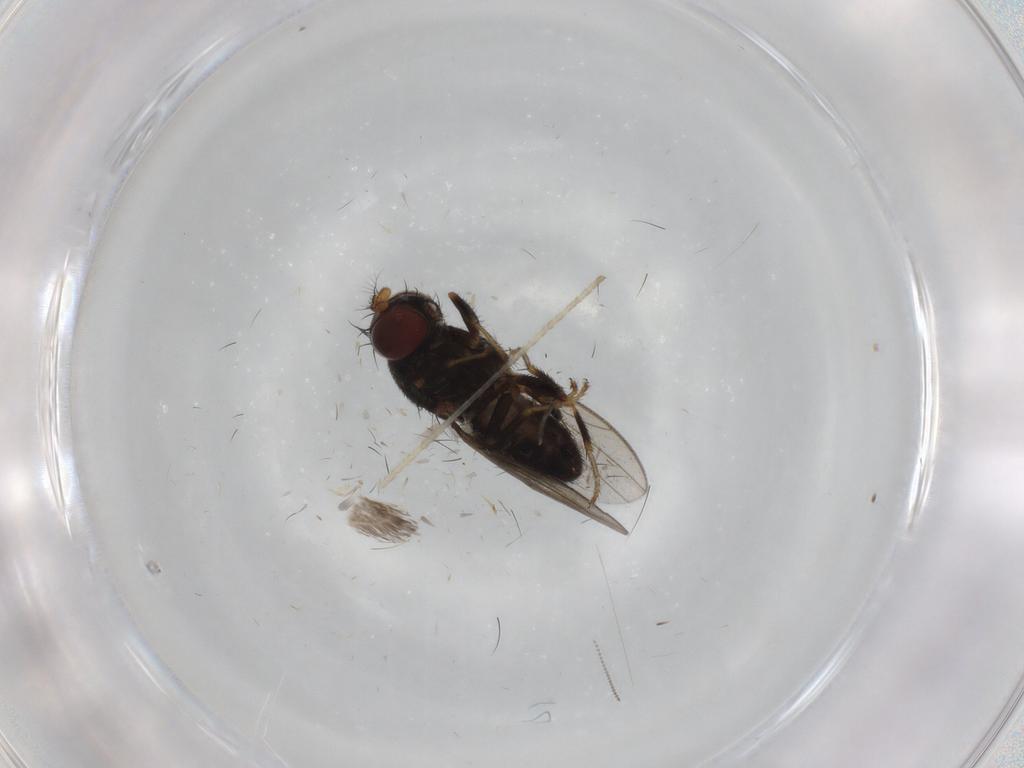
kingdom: Animalia
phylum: Arthropoda
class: Insecta
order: Diptera
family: Cecidomyiidae
